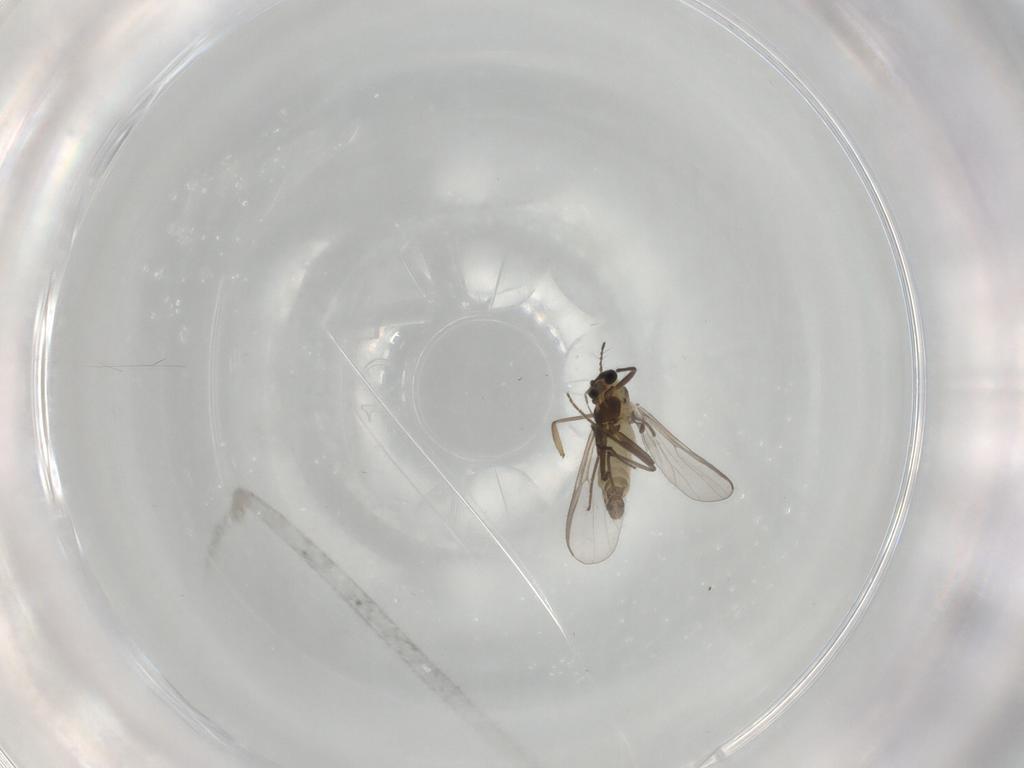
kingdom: Animalia
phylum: Arthropoda
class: Insecta
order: Diptera
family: Chironomidae
